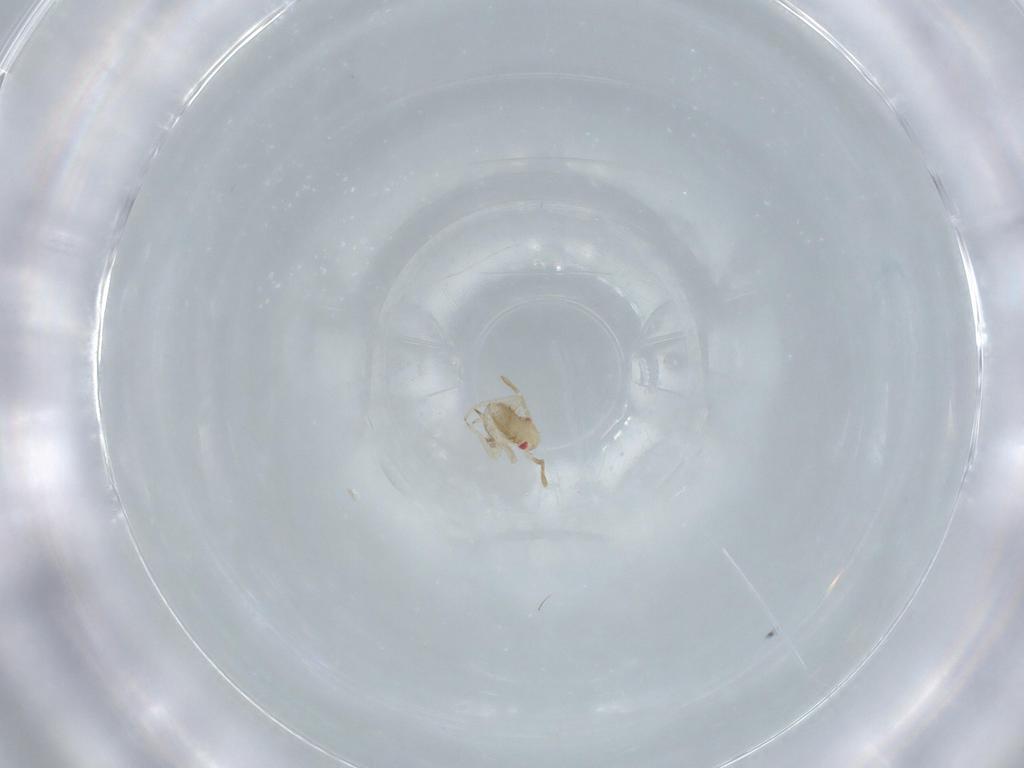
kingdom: Animalia
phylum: Arthropoda
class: Insecta
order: Hemiptera
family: Miridae
